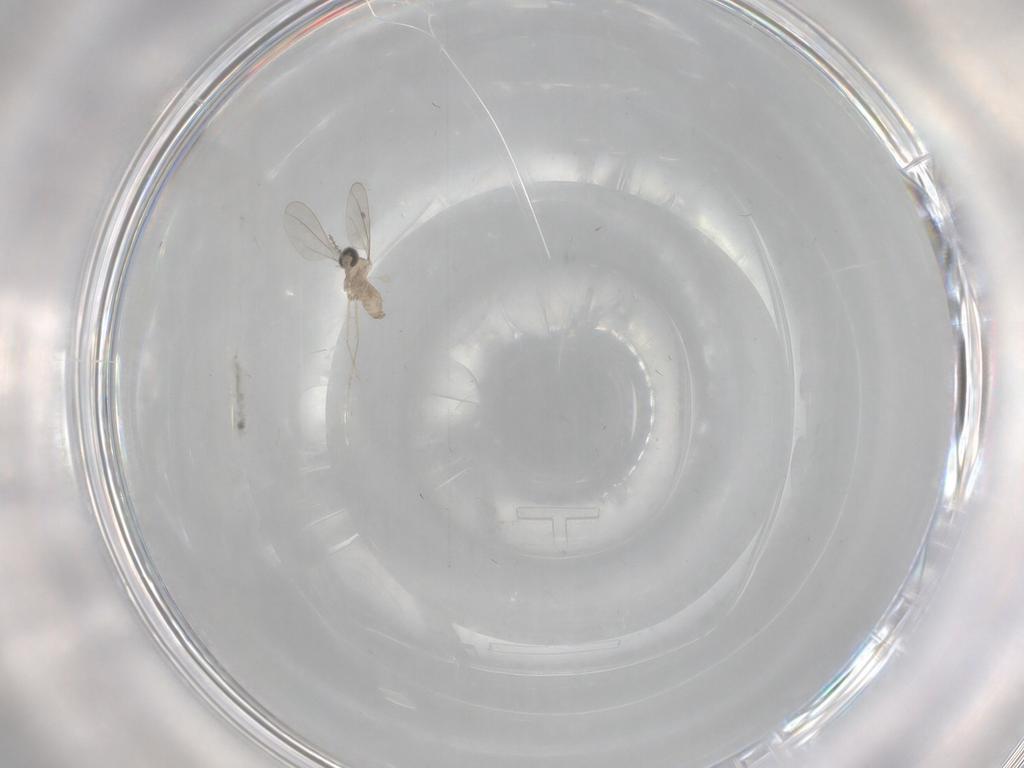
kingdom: Animalia
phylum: Arthropoda
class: Insecta
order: Diptera
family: Cecidomyiidae
